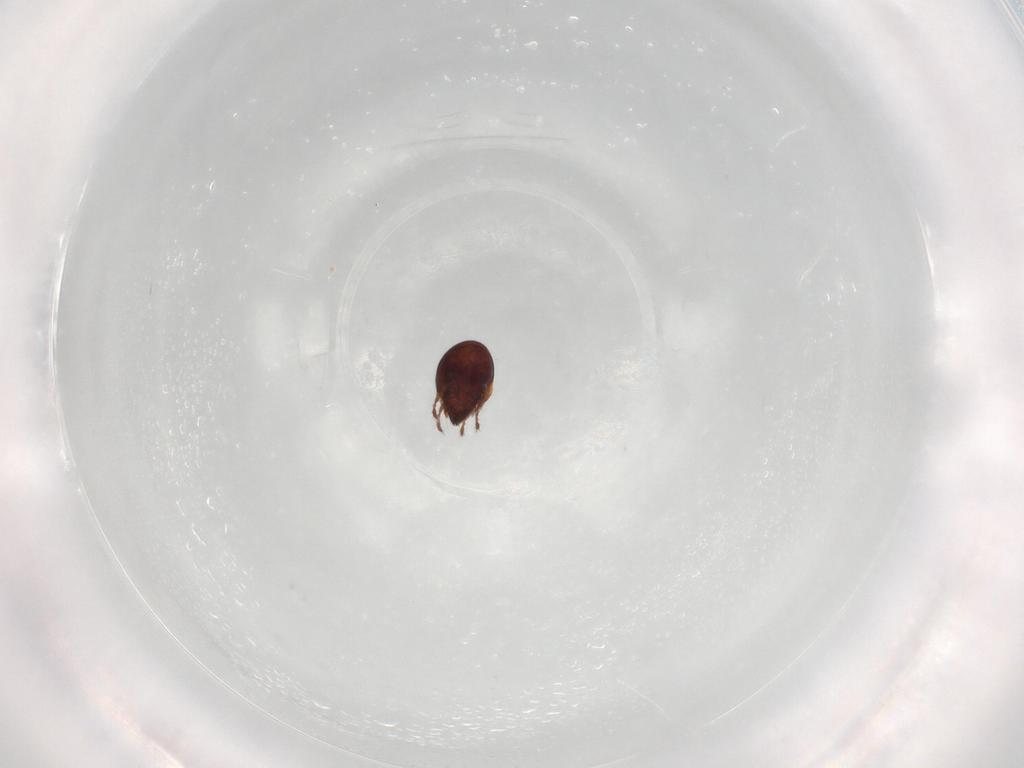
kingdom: Animalia
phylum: Arthropoda
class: Arachnida
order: Sarcoptiformes
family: Ceratozetidae
